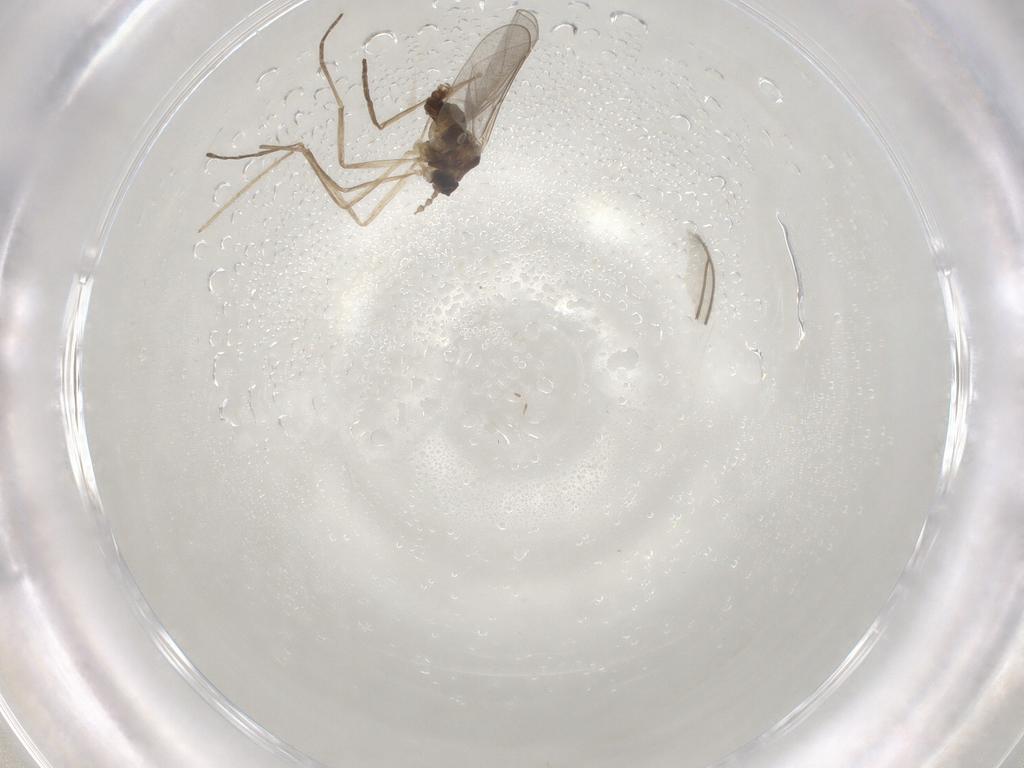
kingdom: Animalia
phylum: Arthropoda
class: Insecta
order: Diptera
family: Cecidomyiidae
